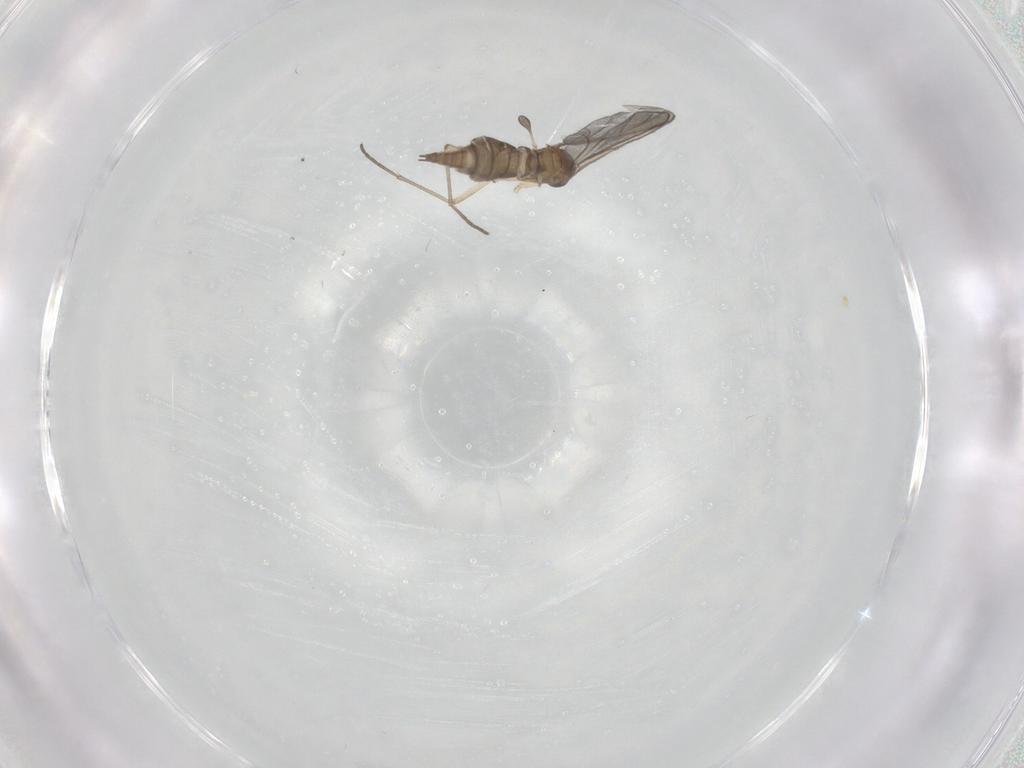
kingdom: Animalia
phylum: Arthropoda
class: Insecta
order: Diptera
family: Sciaridae
